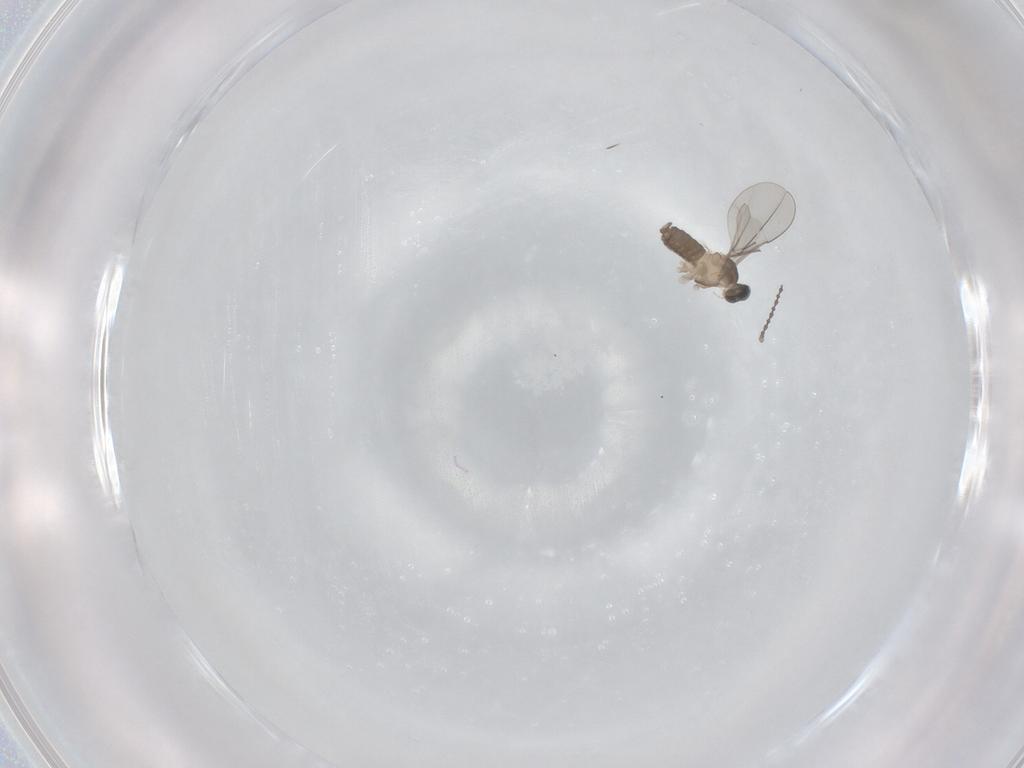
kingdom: Animalia
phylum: Arthropoda
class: Insecta
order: Diptera
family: Cecidomyiidae
